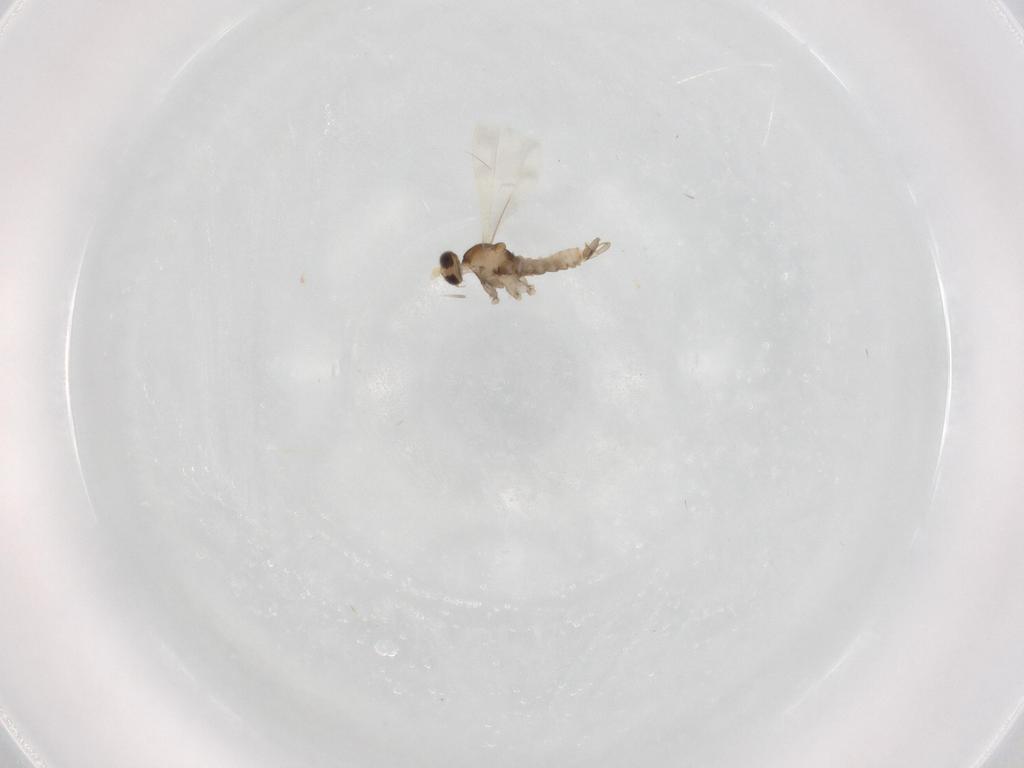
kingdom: Animalia
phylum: Arthropoda
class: Insecta
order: Diptera
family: Cecidomyiidae
